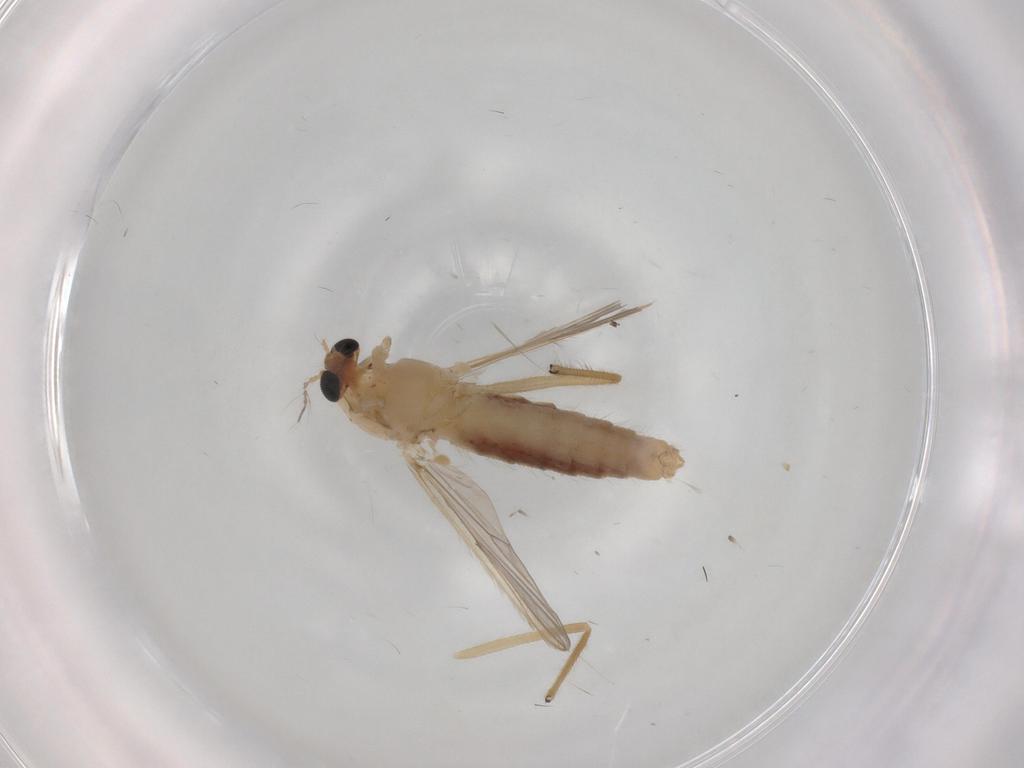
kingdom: Animalia
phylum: Arthropoda
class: Insecta
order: Diptera
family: Chironomidae
